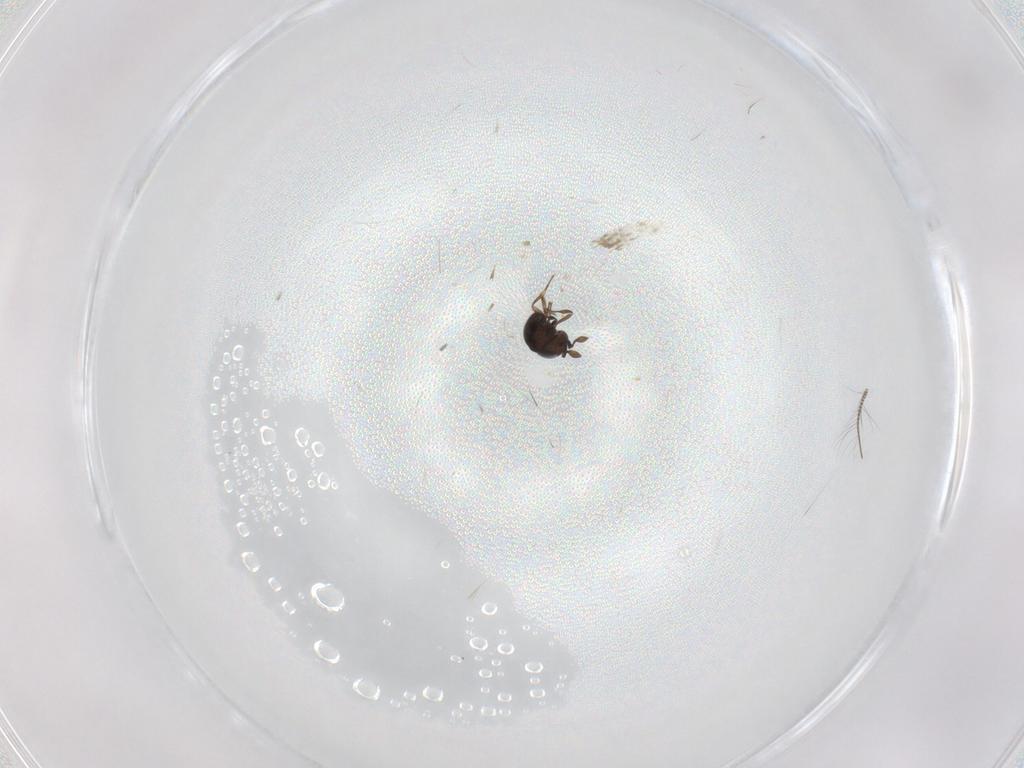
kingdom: Animalia
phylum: Arthropoda
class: Insecta
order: Hymenoptera
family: Scelionidae
